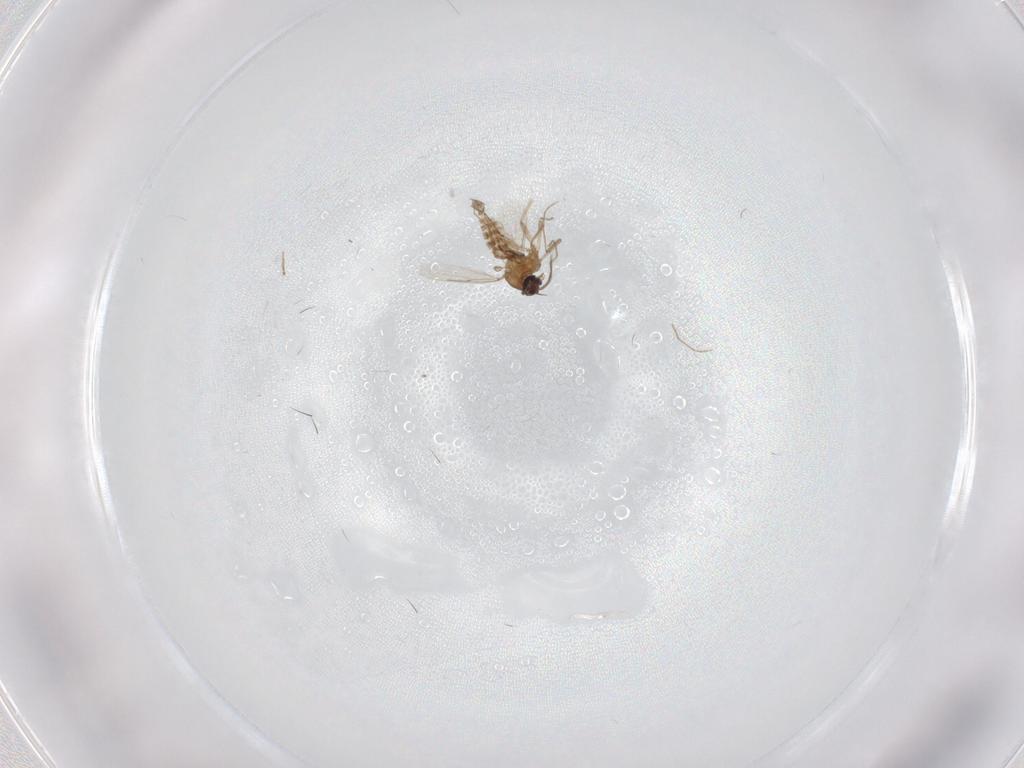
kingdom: Animalia
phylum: Arthropoda
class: Insecta
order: Diptera
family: Ceratopogonidae
